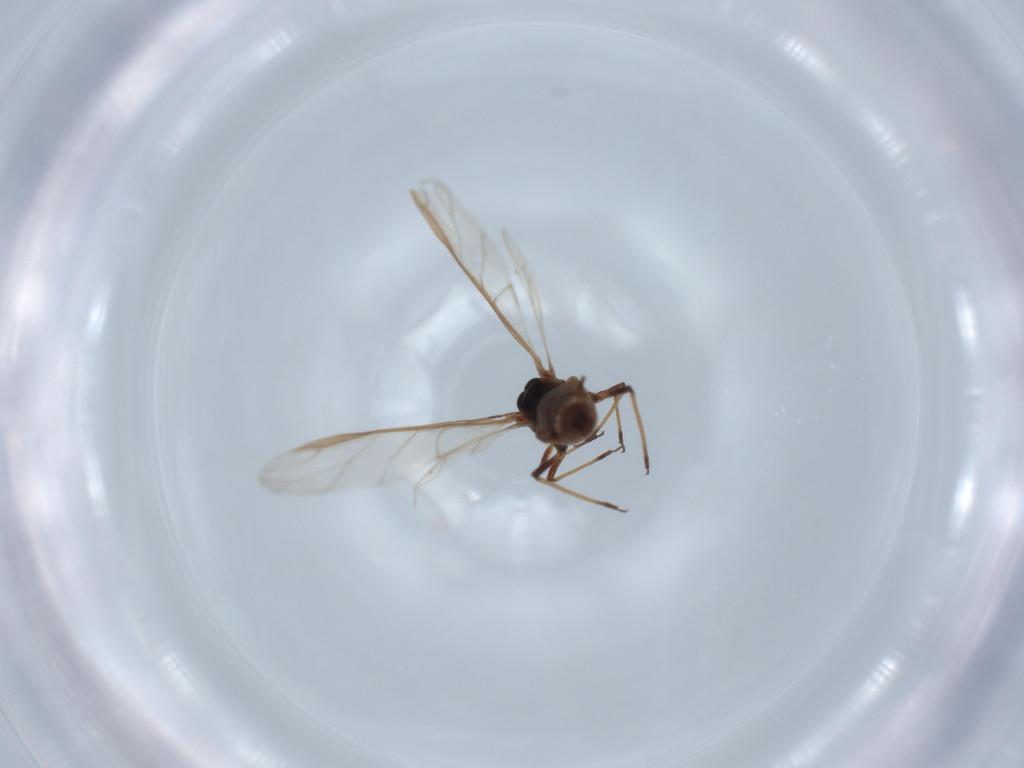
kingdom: Animalia
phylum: Arthropoda
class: Insecta
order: Hemiptera
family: Aphididae
